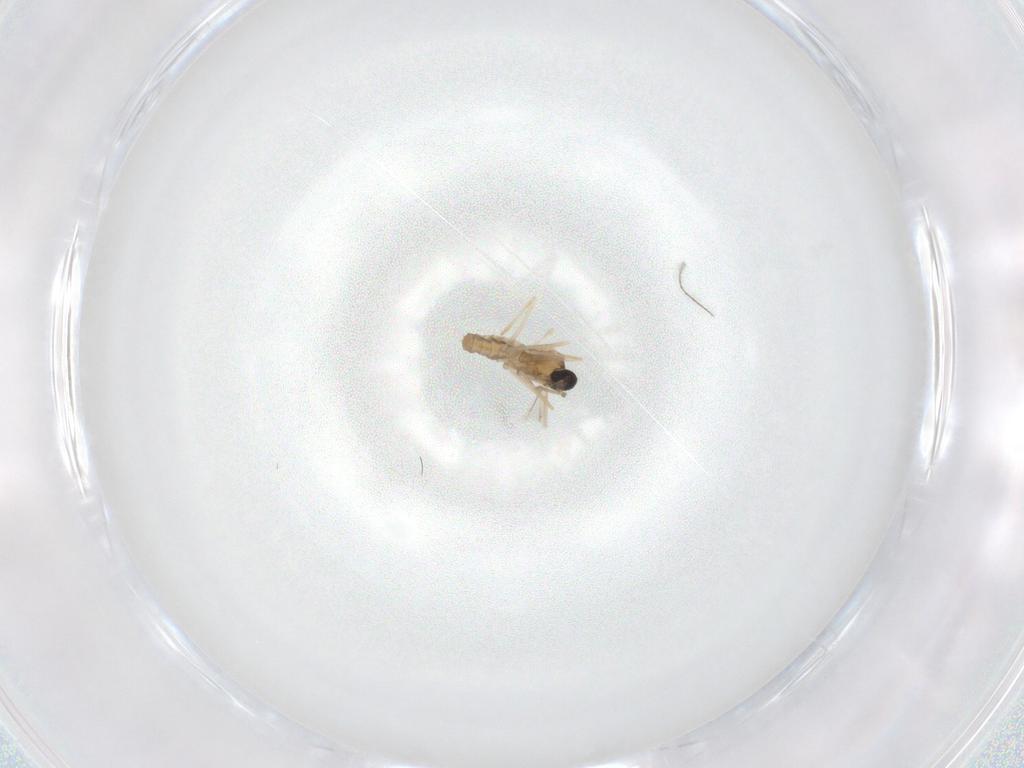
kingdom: Animalia
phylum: Arthropoda
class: Insecta
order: Diptera
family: Cecidomyiidae
